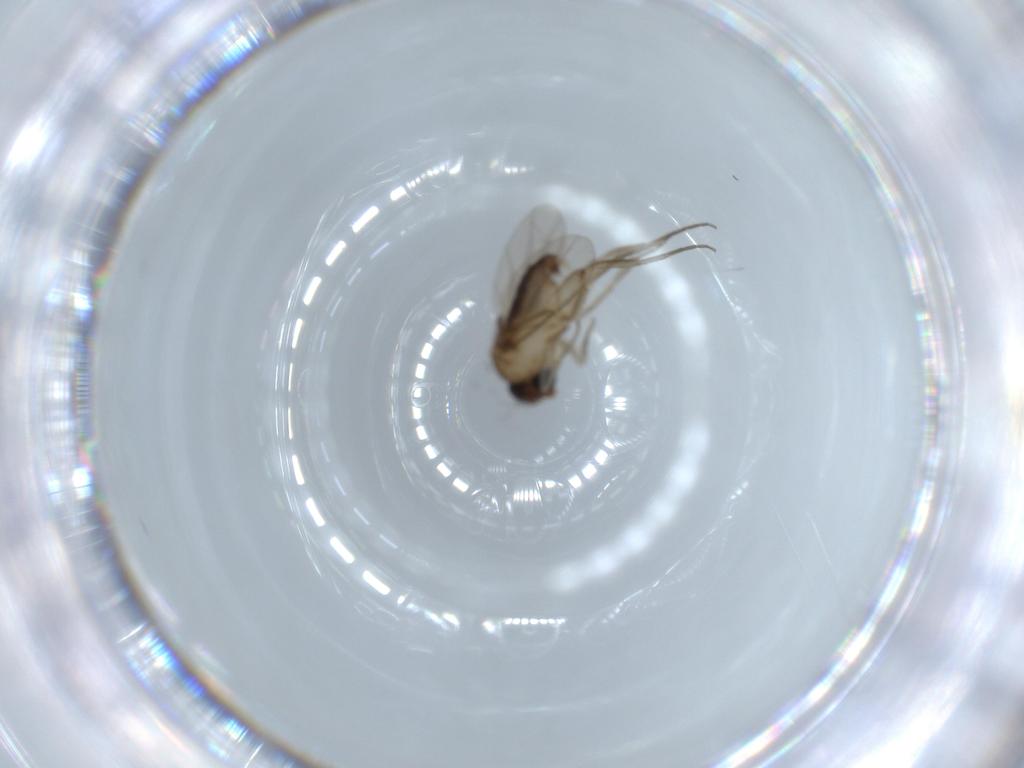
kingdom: Animalia
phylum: Arthropoda
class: Insecta
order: Diptera
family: Phoridae
